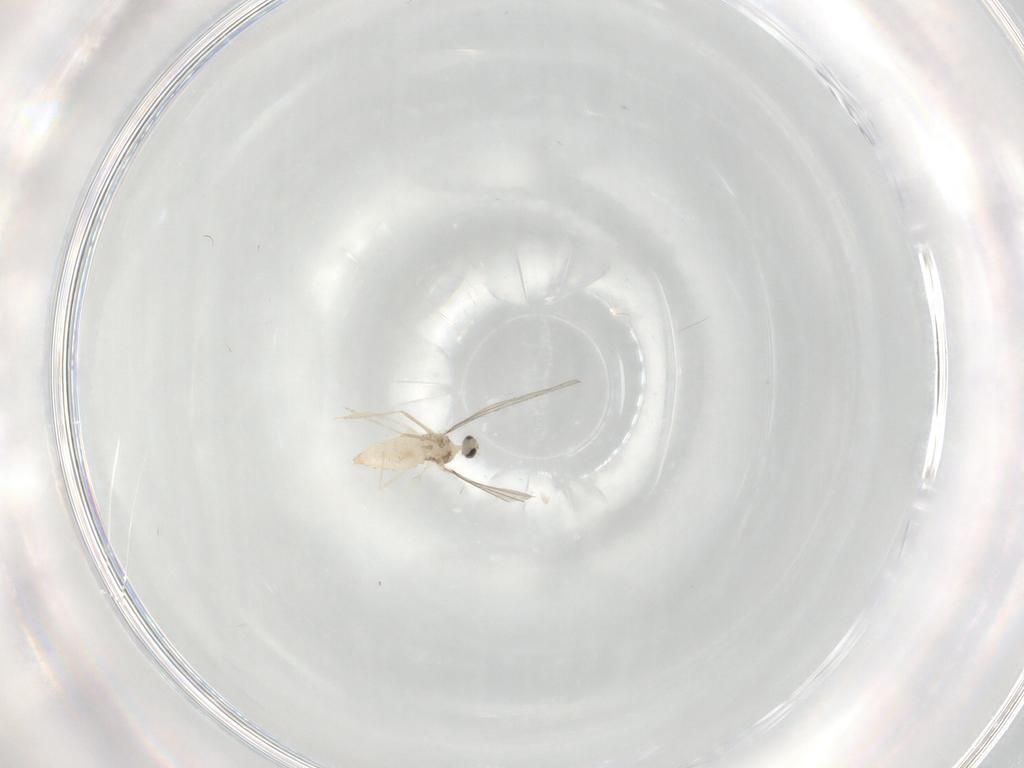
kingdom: Animalia
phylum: Arthropoda
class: Insecta
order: Diptera
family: Cecidomyiidae
